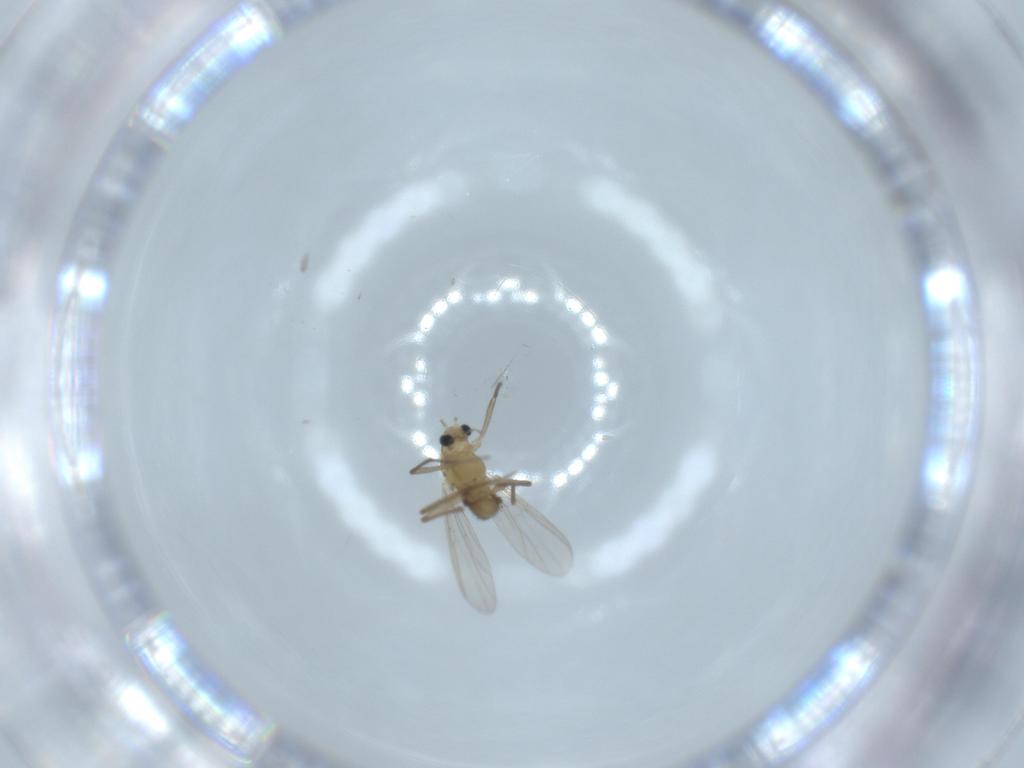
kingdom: Animalia
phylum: Arthropoda
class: Insecta
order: Diptera
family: Chironomidae
